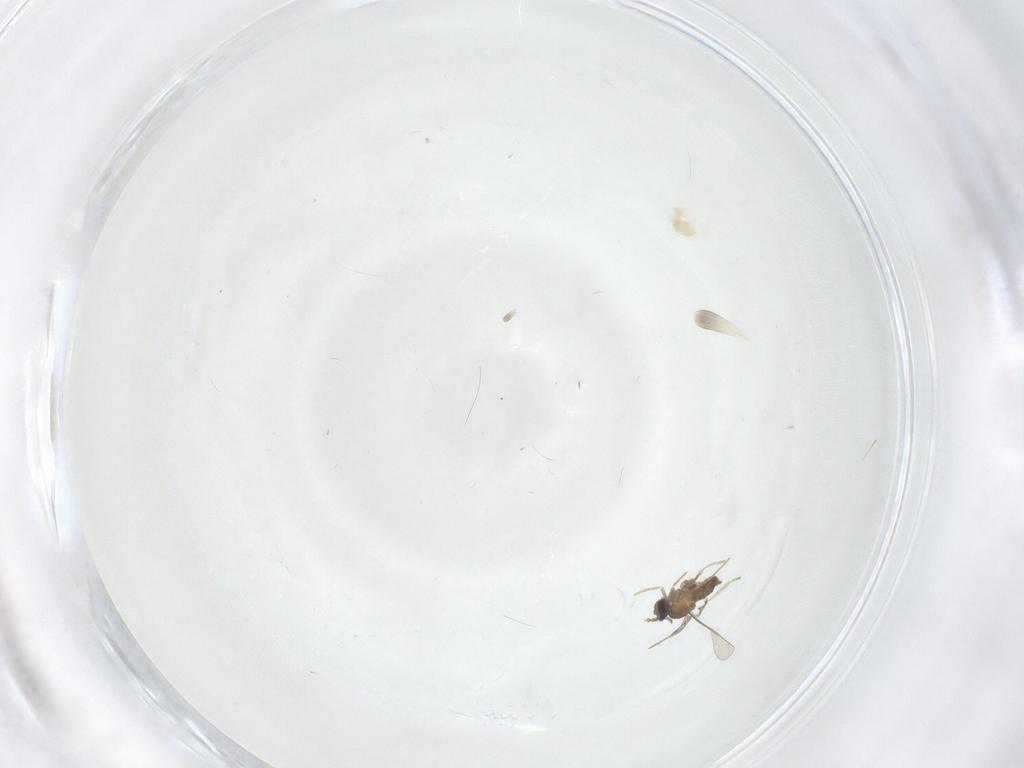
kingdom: Animalia
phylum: Arthropoda
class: Insecta
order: Diptera
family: Cecidomyiidae
